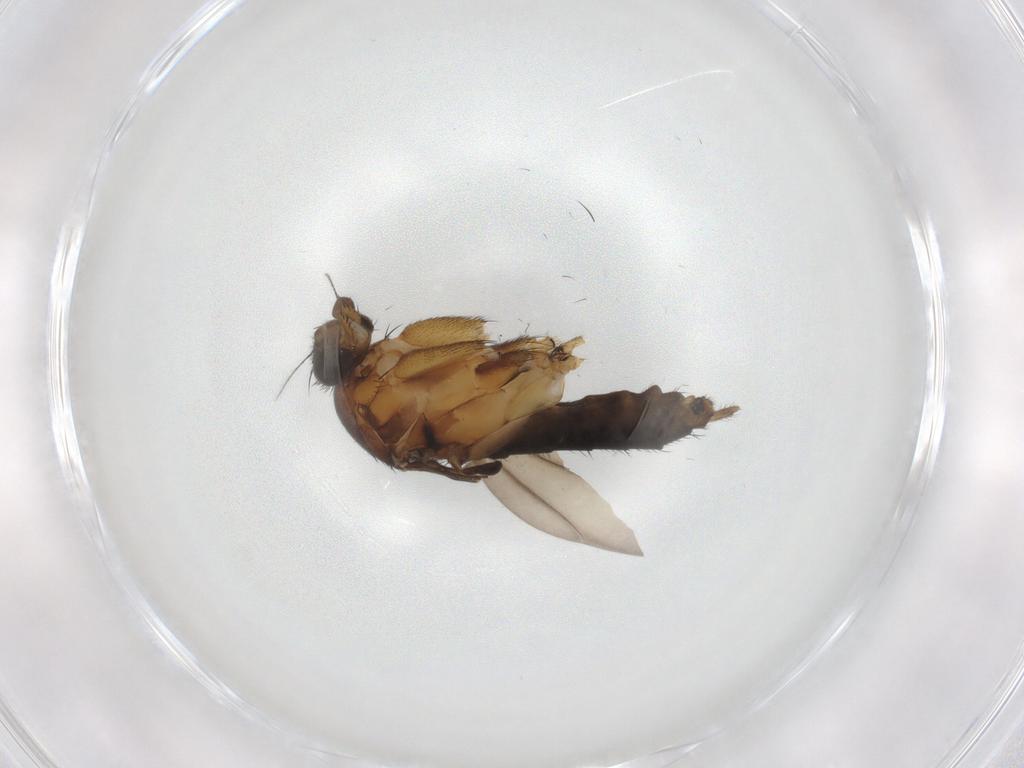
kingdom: Animalia
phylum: Arthropoda
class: Insecta
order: Diptera
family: Phoridae
